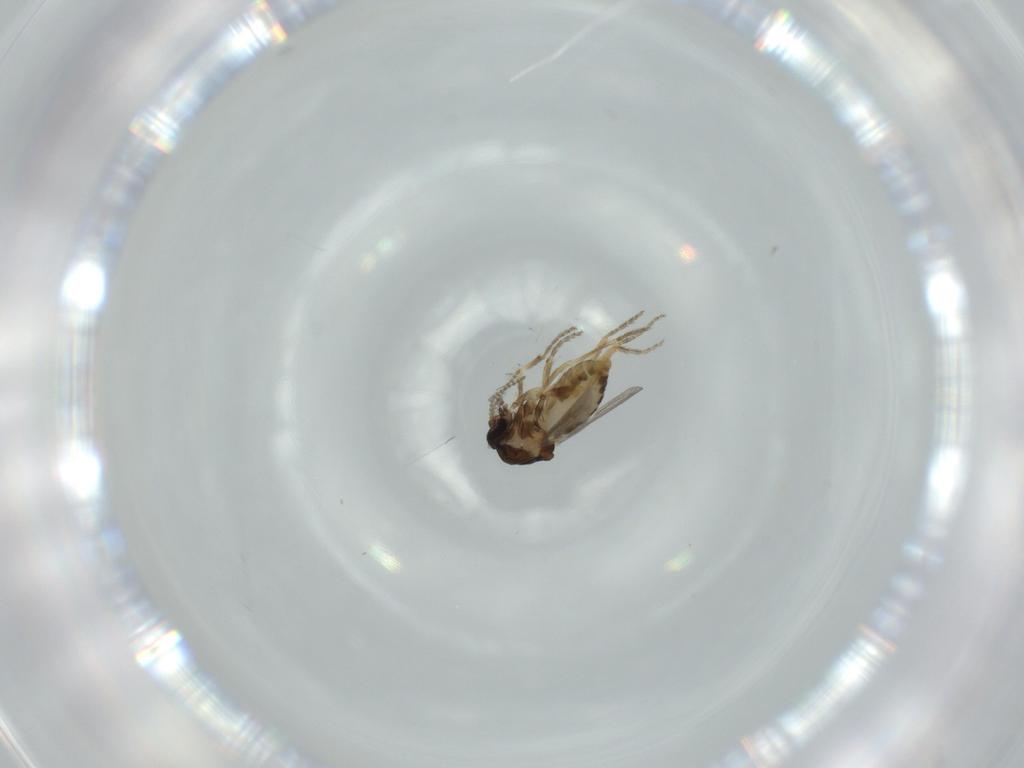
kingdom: Animalia
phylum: Arthropoda
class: Insecta
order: Diptera
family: Ceratopogonidae
